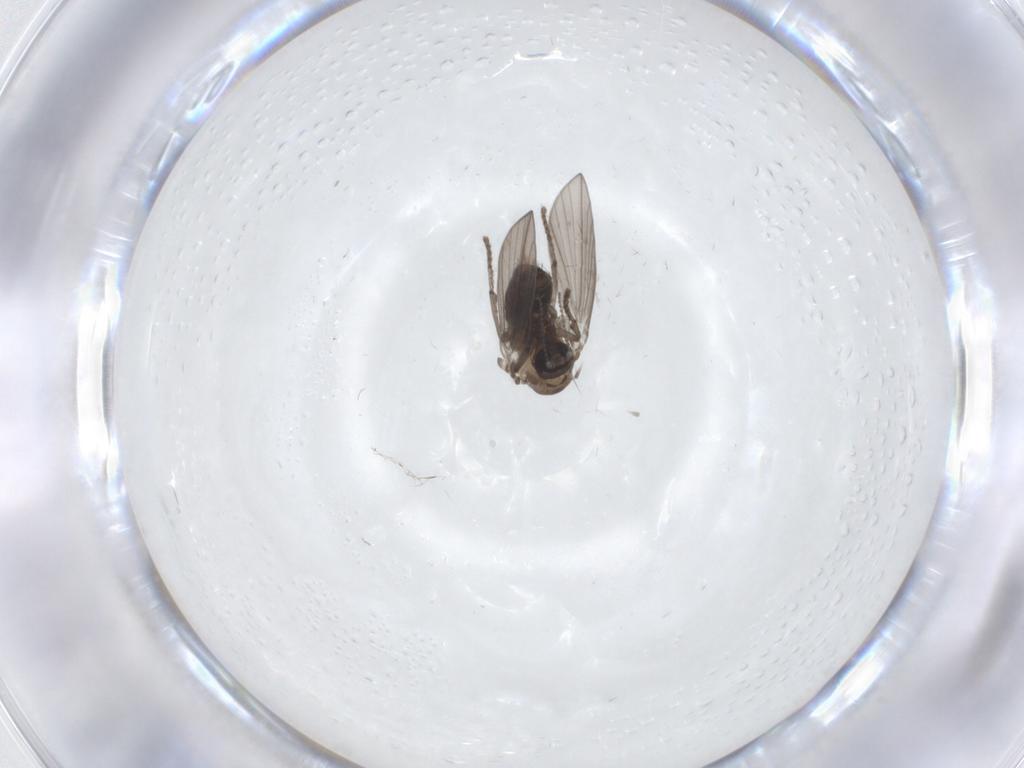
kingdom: Animalia
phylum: Arthropoda
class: Insecta
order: Diptera
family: Psychodidae
